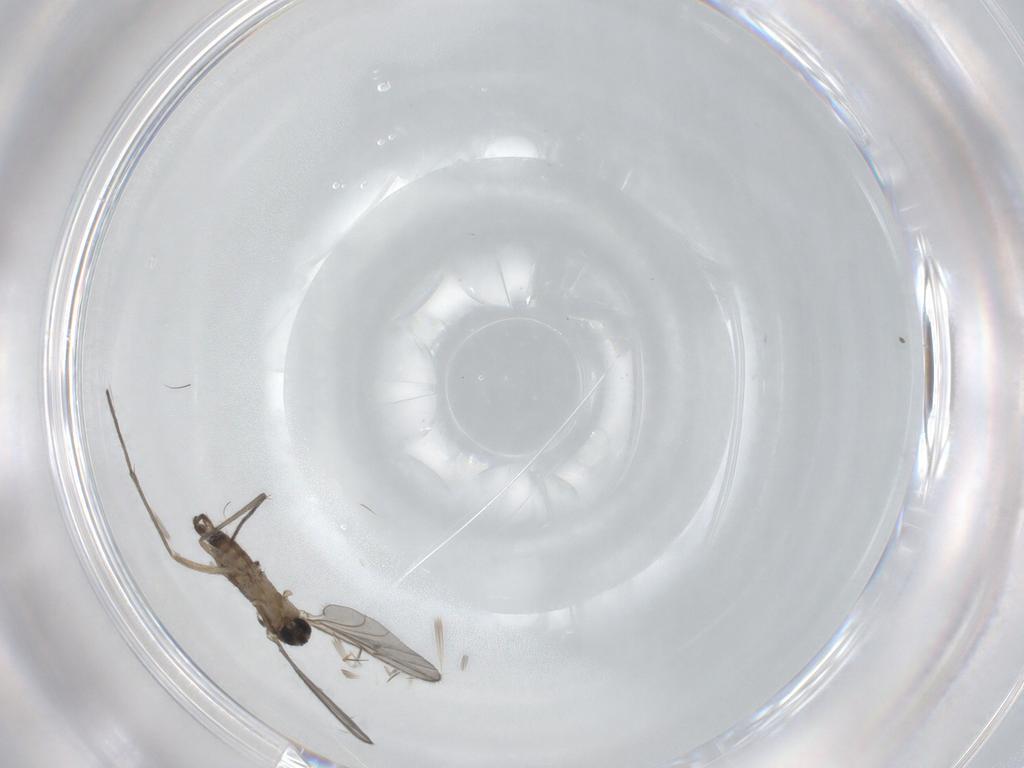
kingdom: Animalia
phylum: Arthropoda
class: Insecta
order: Diptera
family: Sciaridae
